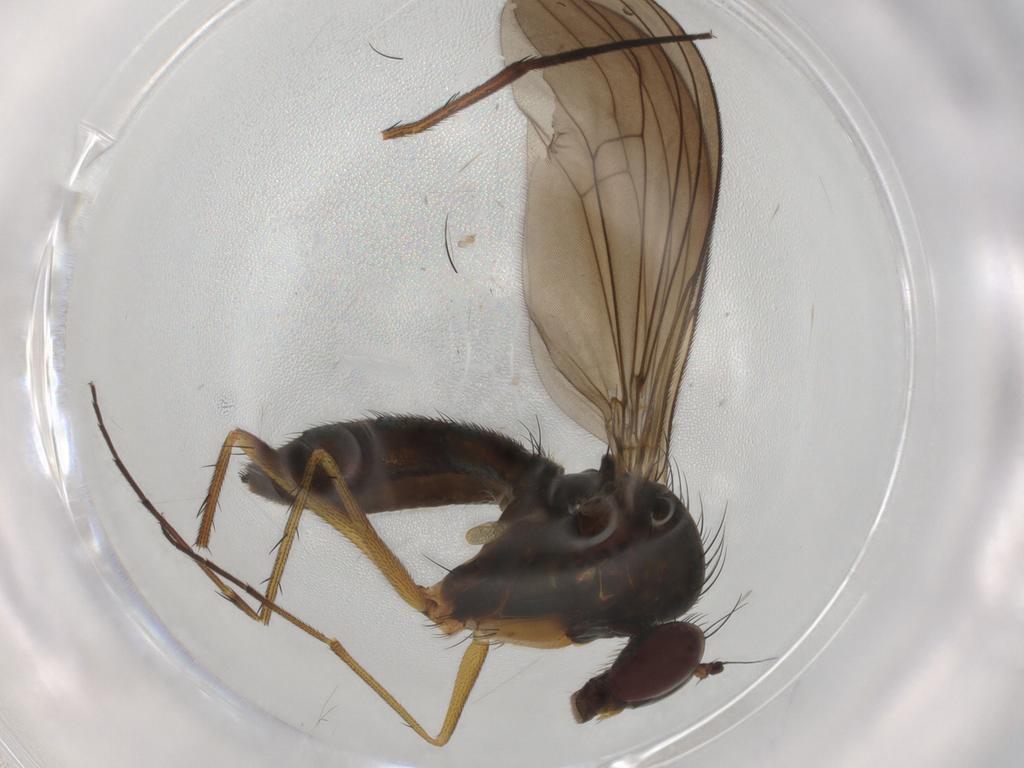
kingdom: Animalia
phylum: Arthropoda
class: Insecta
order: Diptera
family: Dolichopodidae
